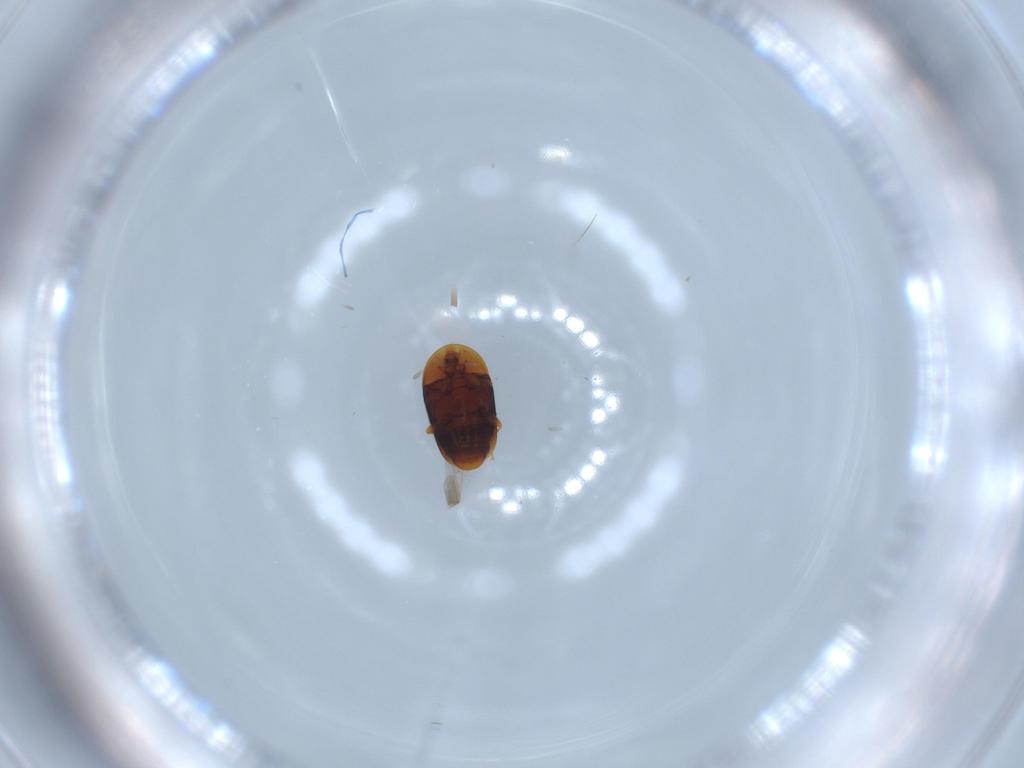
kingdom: Animalia
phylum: Arthropoda
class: Insecta
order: Coleoptera
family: Corylophidae
